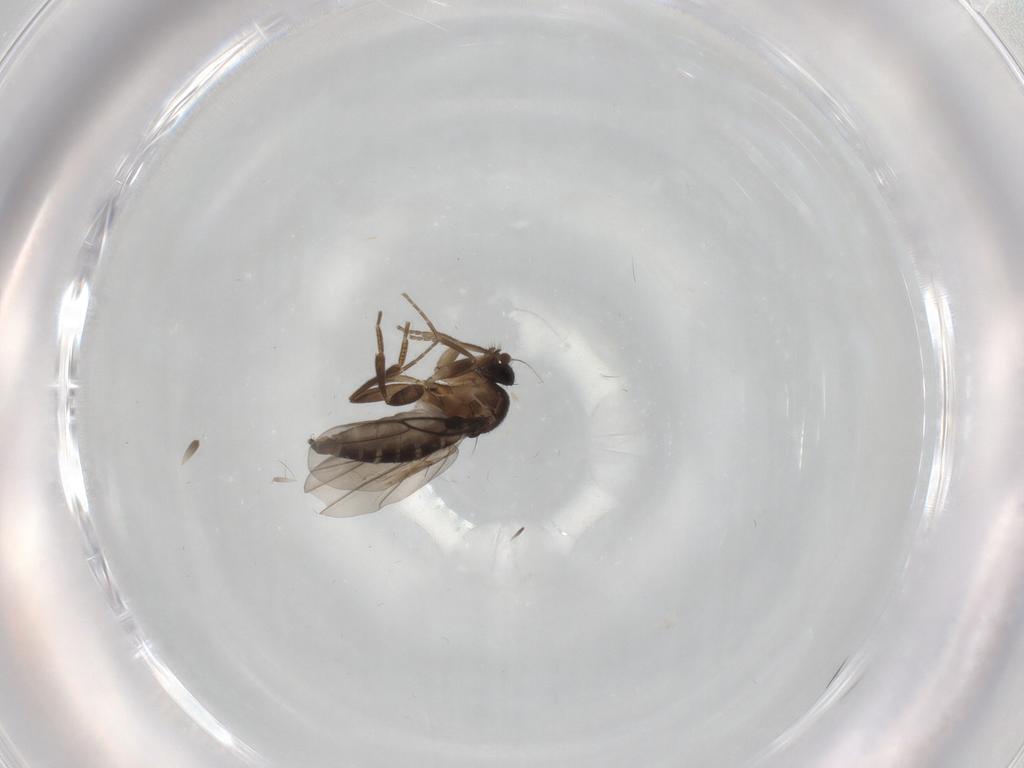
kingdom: Animalia
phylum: Arthropoda
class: Insecta
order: Diptera
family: Phoridae
